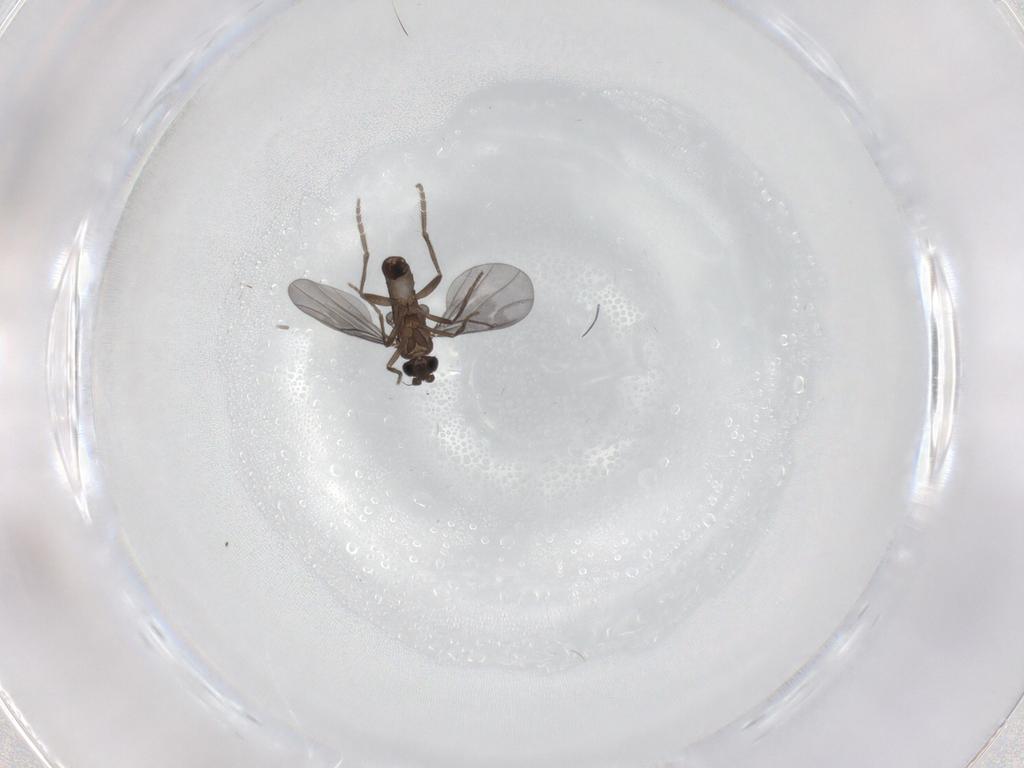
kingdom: Animalia
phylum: Arthropoda
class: Insecta
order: Diptera
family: Phoridae
